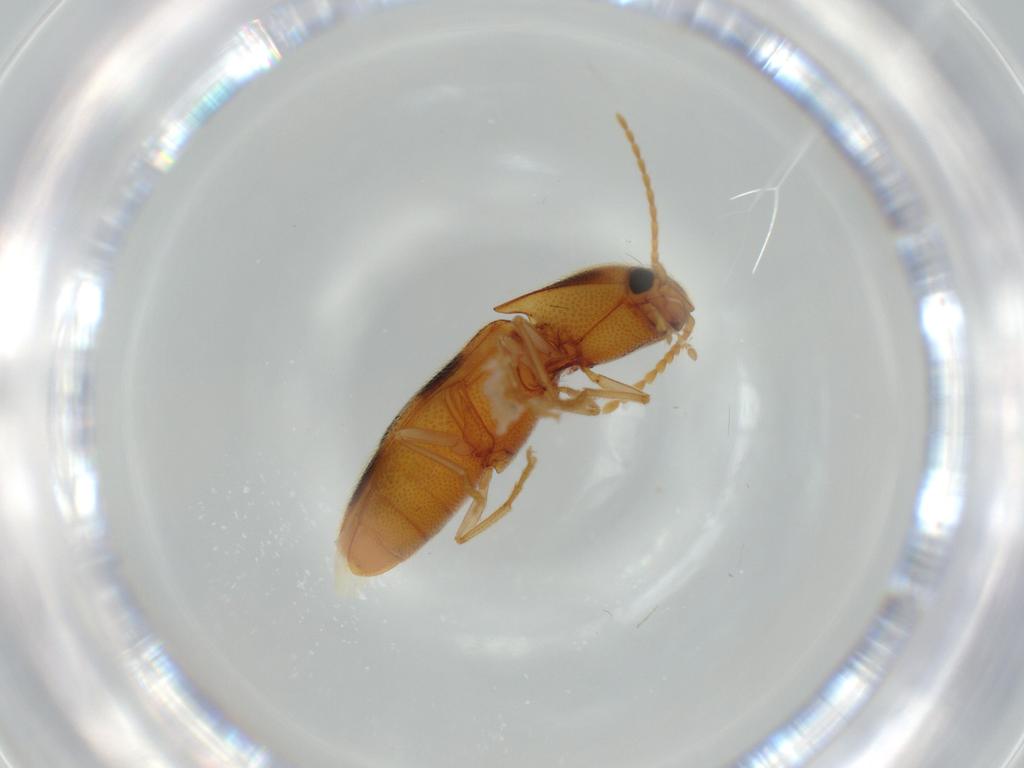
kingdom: Animalia
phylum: Arthropoda
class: Insecta
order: Coleoptera
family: Elateridae
